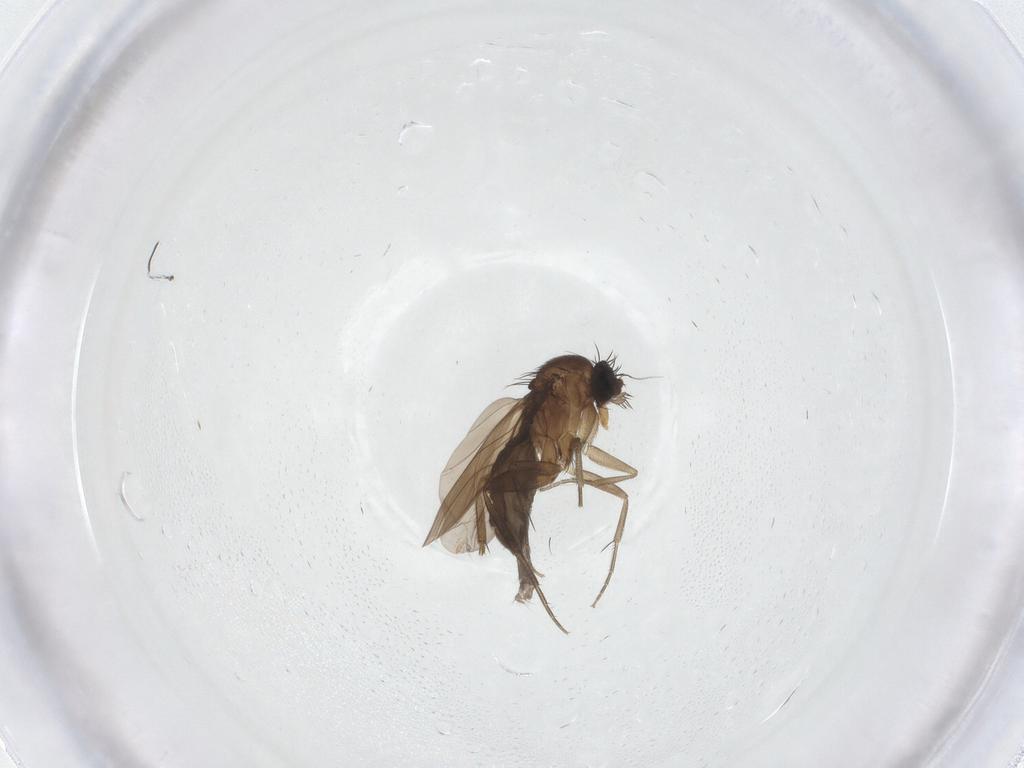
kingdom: Animalia
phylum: Arthropoda
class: Insecta
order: Diptera
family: Phoridae
